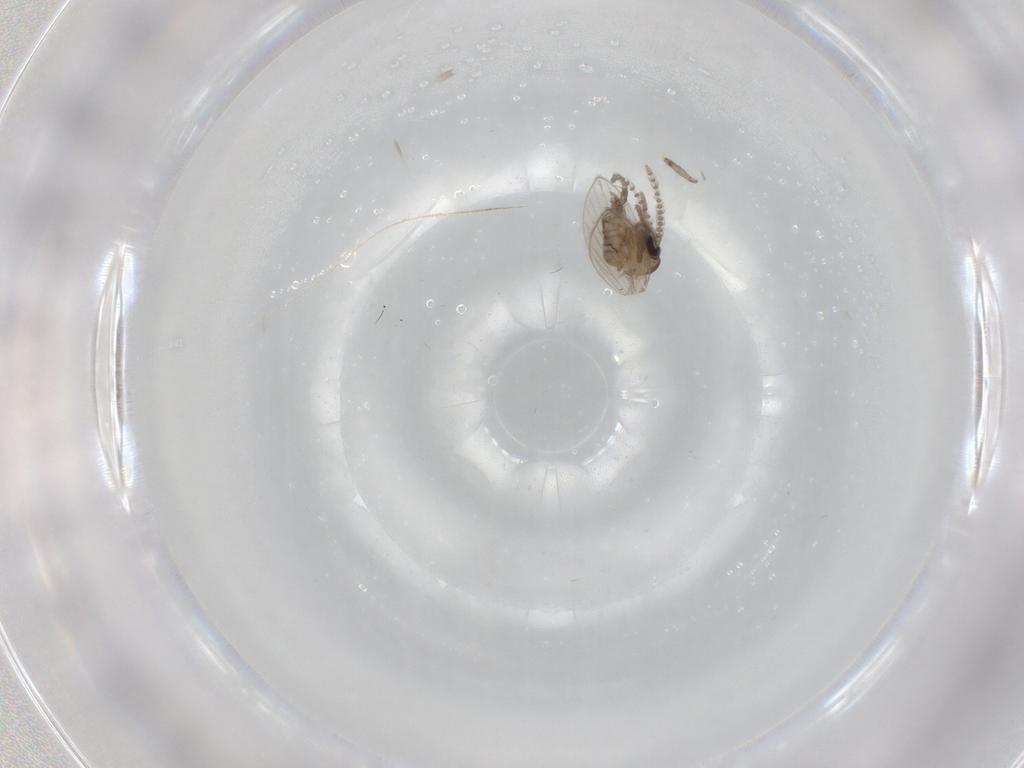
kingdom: Animalia
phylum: Arthropoda
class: Insecta
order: Diptera
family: Psychodidae
